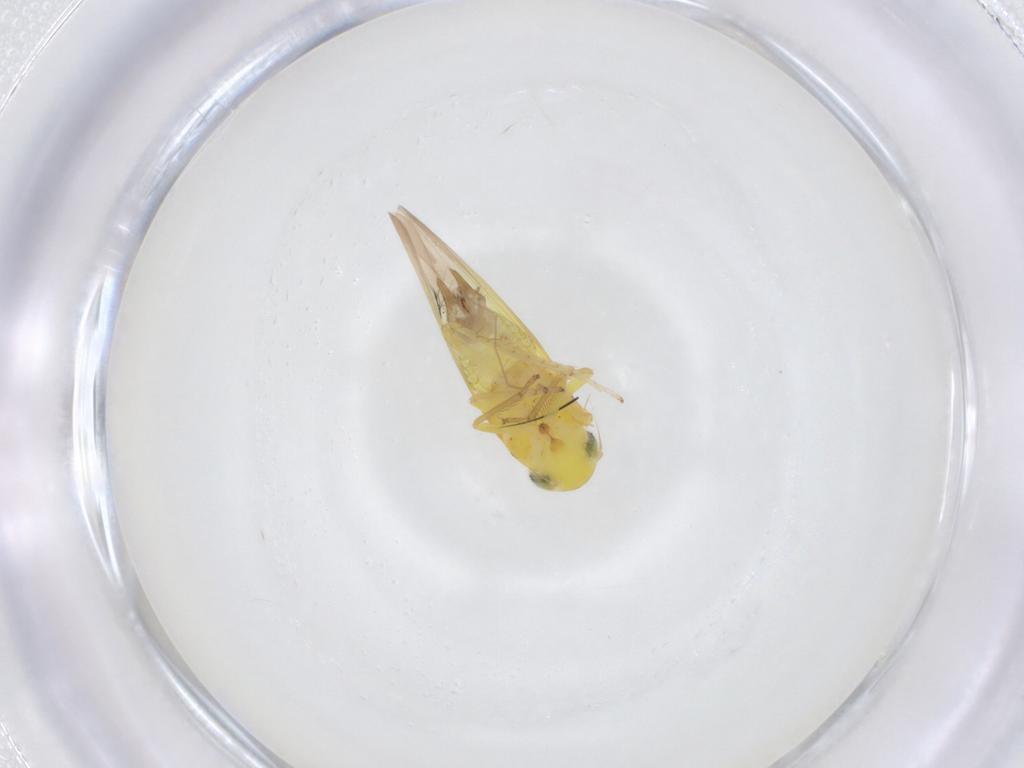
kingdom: Animalia
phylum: Arthropoda
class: Insecta
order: Hemiptera
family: Cicadellidae
